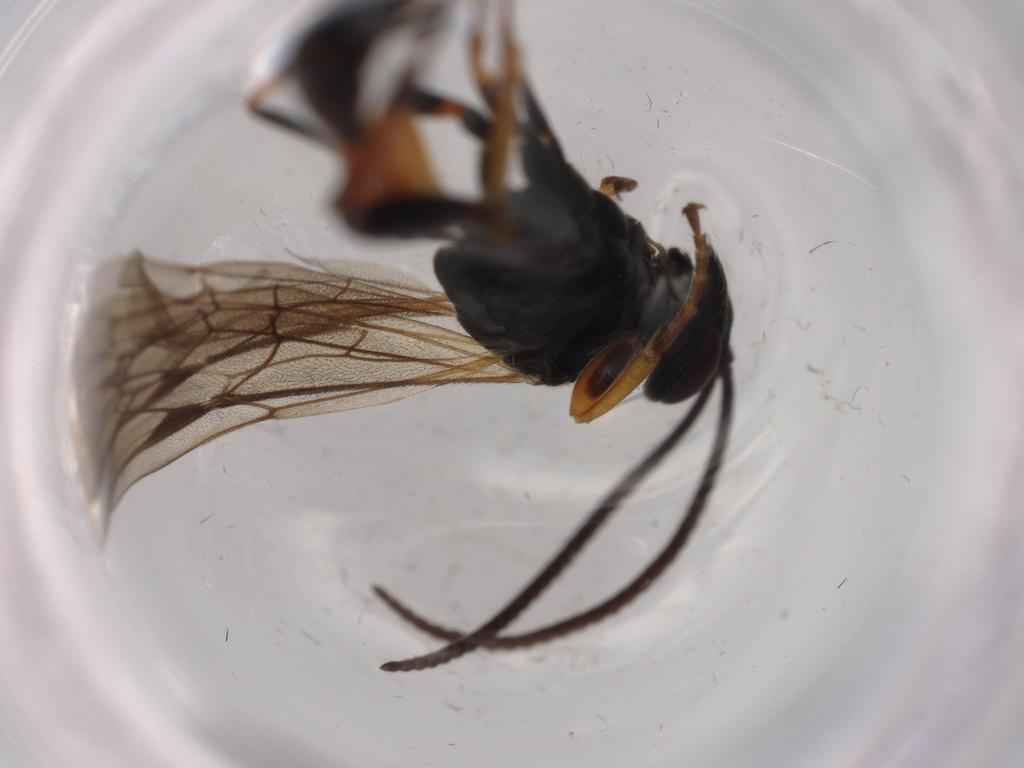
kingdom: Animalia
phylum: Arthropoda
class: Insecta
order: Hymenoptera
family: Ichneumonidae
